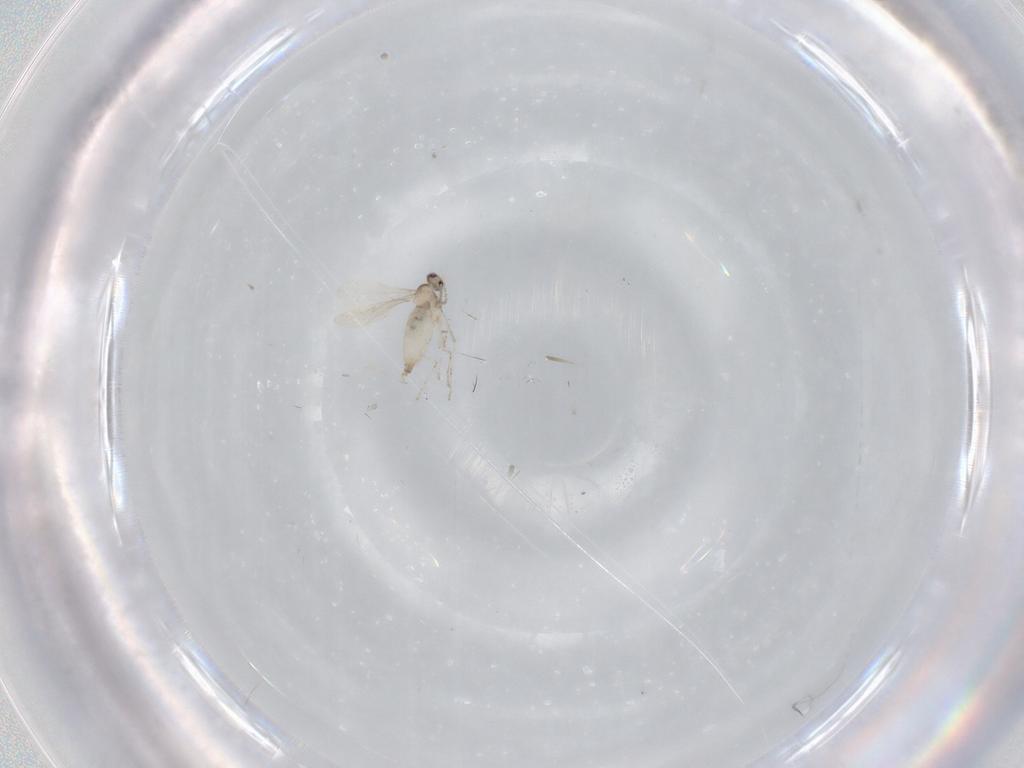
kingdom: Animalia
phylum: Arthropoda
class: Insecta
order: Diptera
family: Cecidomyiidae
